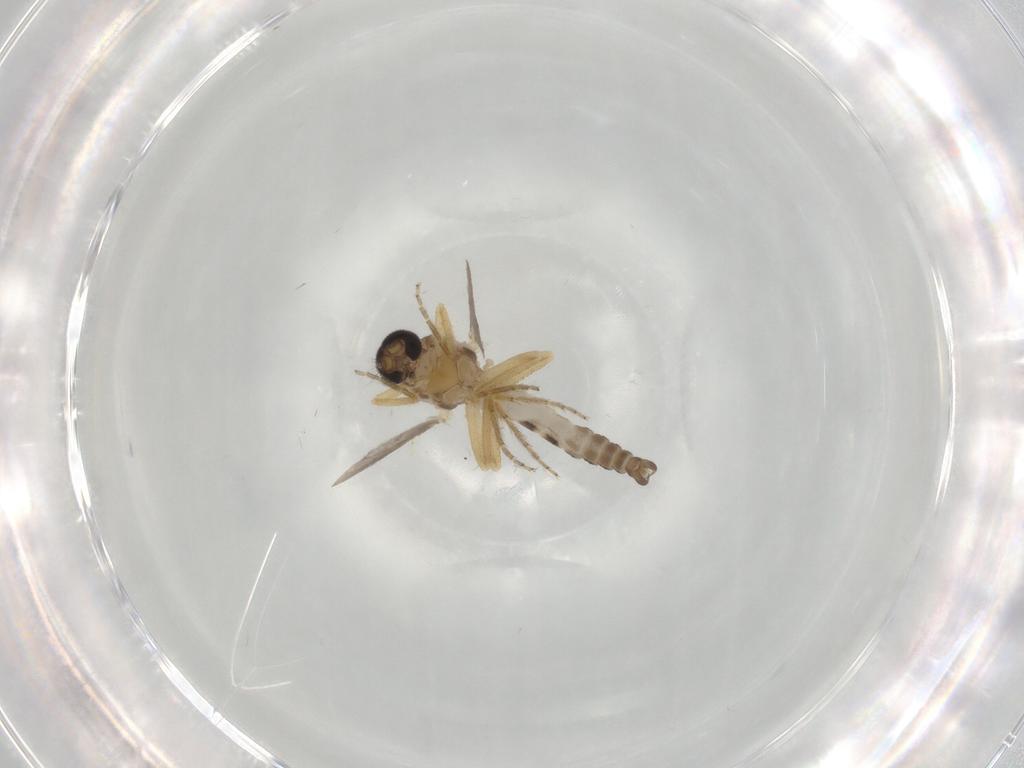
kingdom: Animalia
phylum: Arthropoda
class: Insecta
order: Diptera
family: Ceratopogonidae
